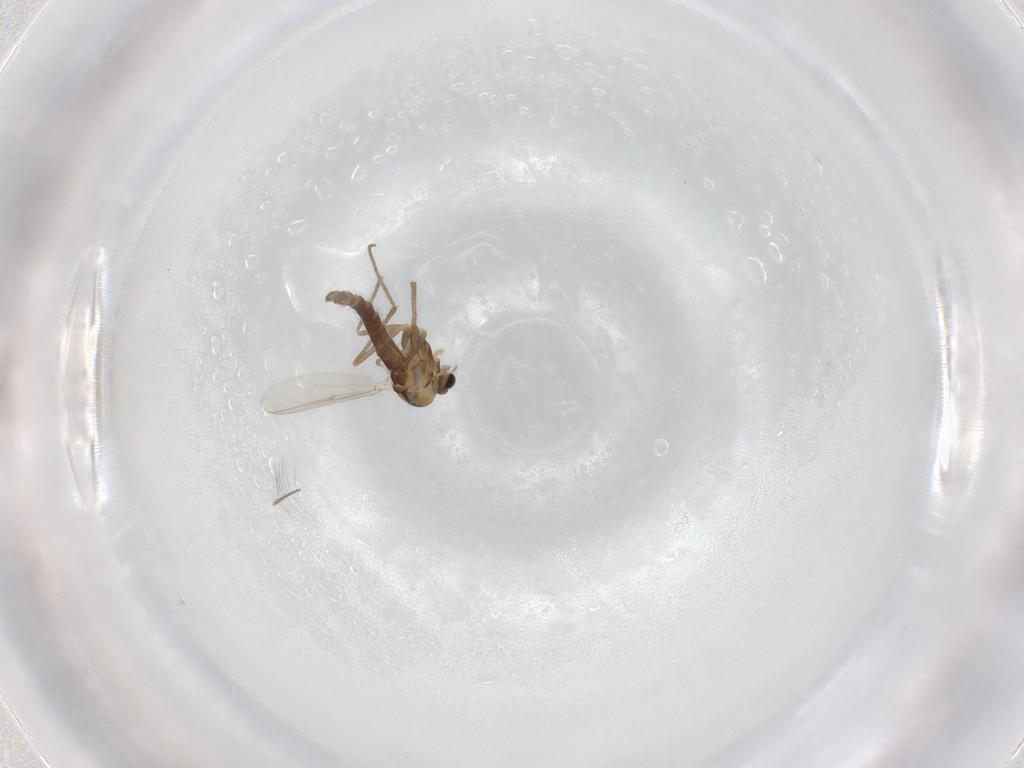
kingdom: Animalia
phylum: Arthropoda
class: Insecta
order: Diptera
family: Chironomidae
